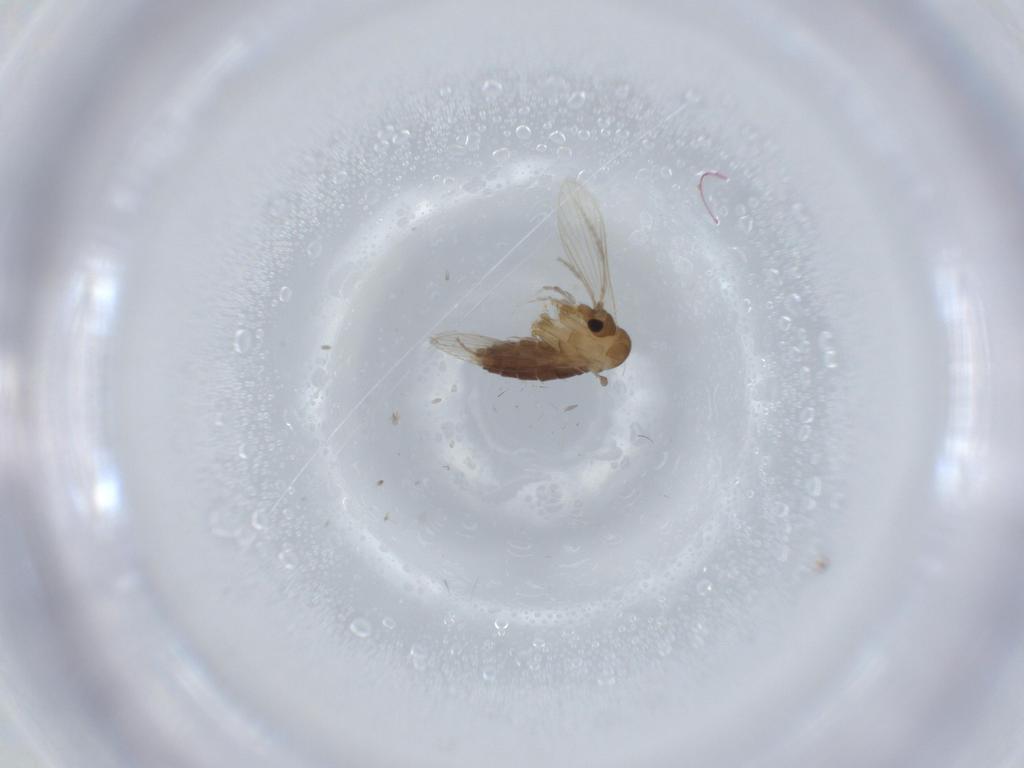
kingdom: Animalia
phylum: Arthropoda
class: Insecta
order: Diptera
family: Psychodidae
